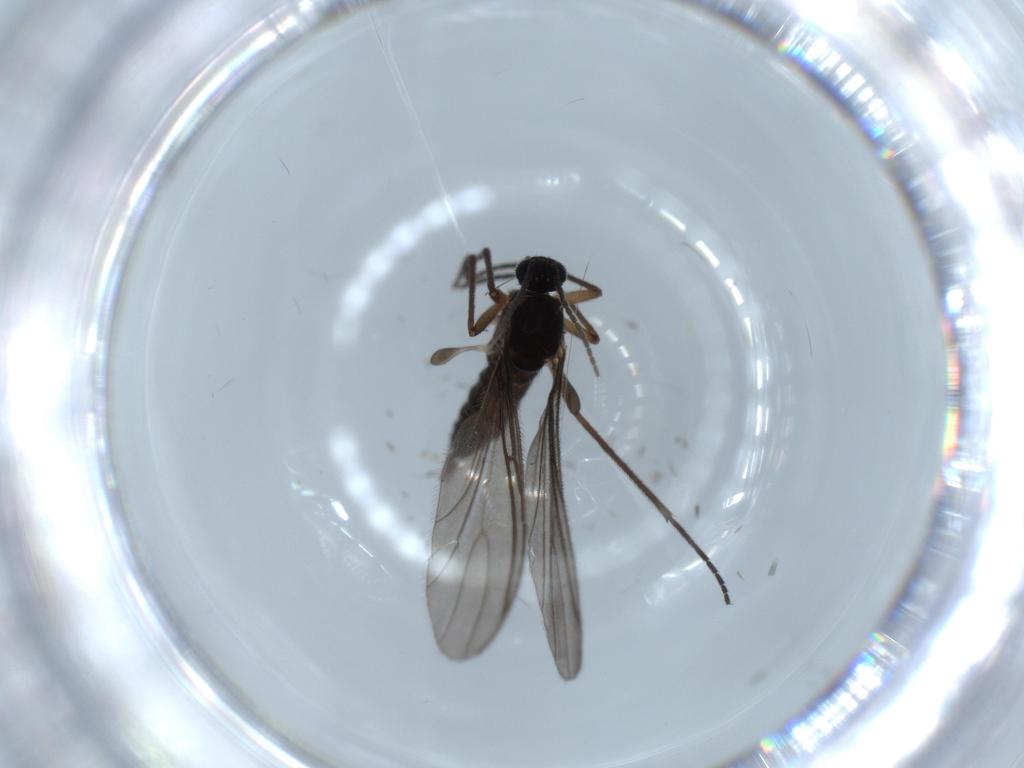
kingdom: Animalia
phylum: Arthropoda
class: Insecta
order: Diptera
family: Sciaridae
